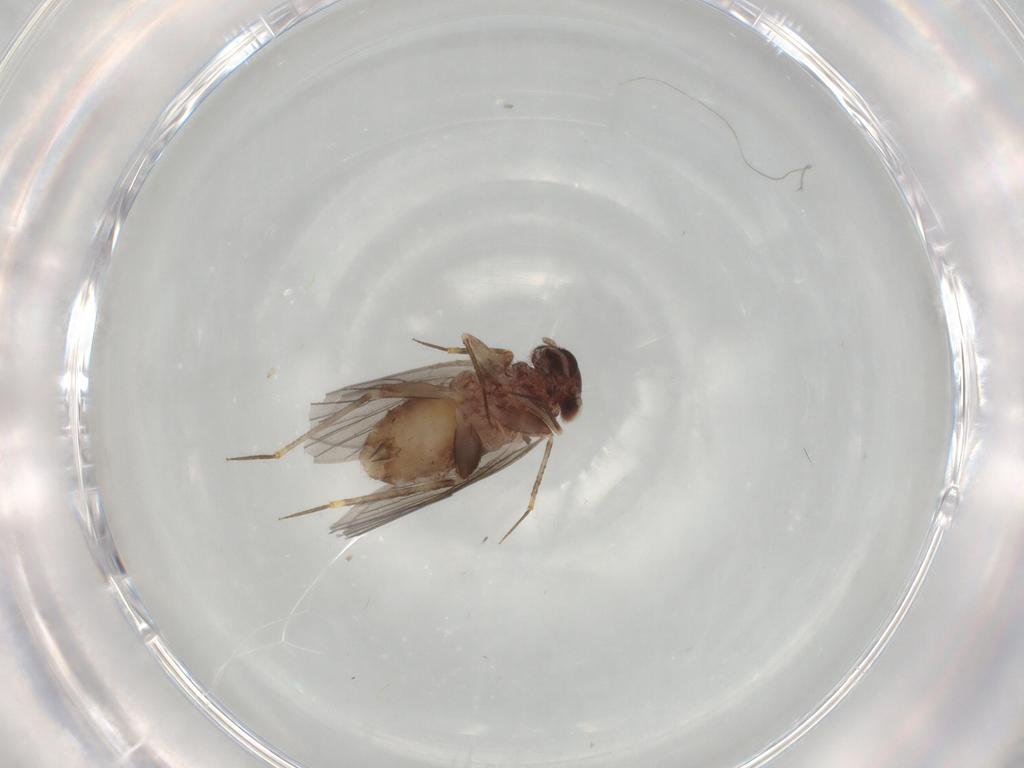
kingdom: Animalia
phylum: Arthropoda
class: Insecta
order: Psocodea
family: Lepidopsocidae
